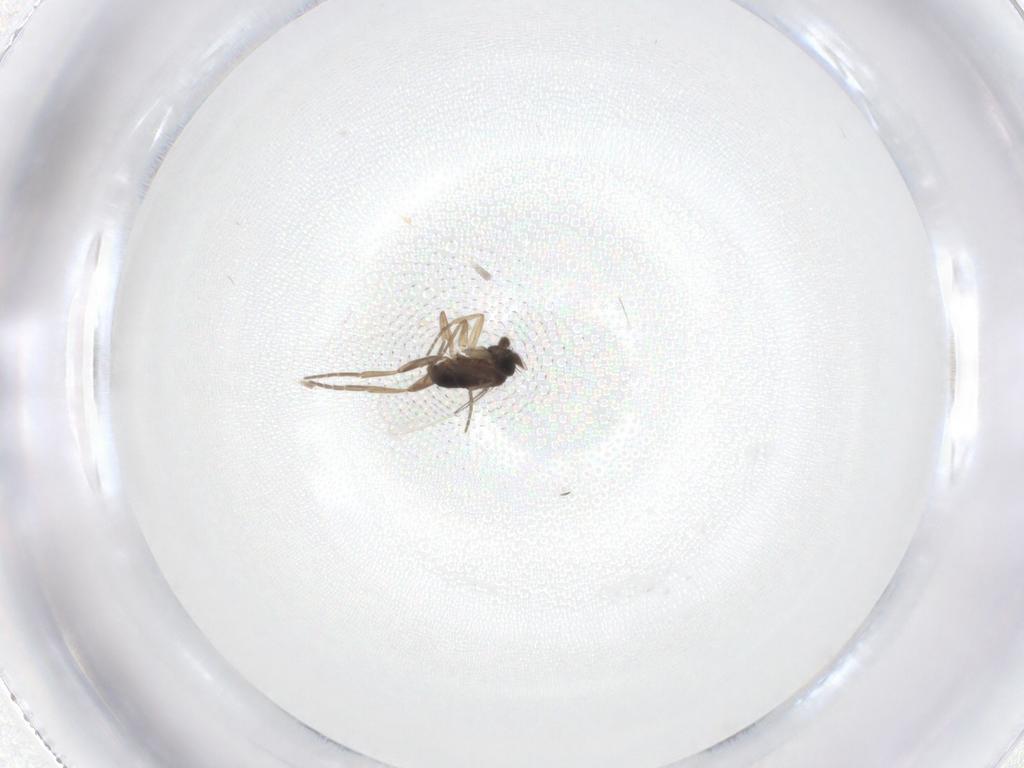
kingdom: Animalia
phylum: Arthropoda
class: Insecta
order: Diptera
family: Phoridae
